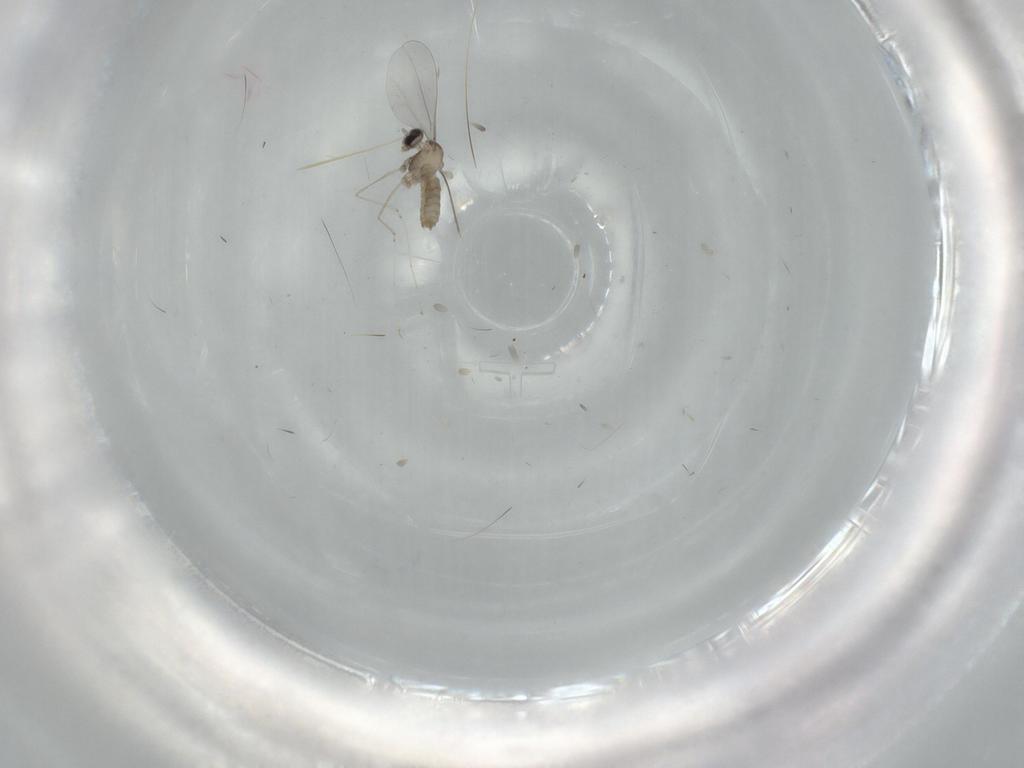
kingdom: Animalia
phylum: Arthropoda
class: Insecta
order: Diptera
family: Cecidomyiidae
